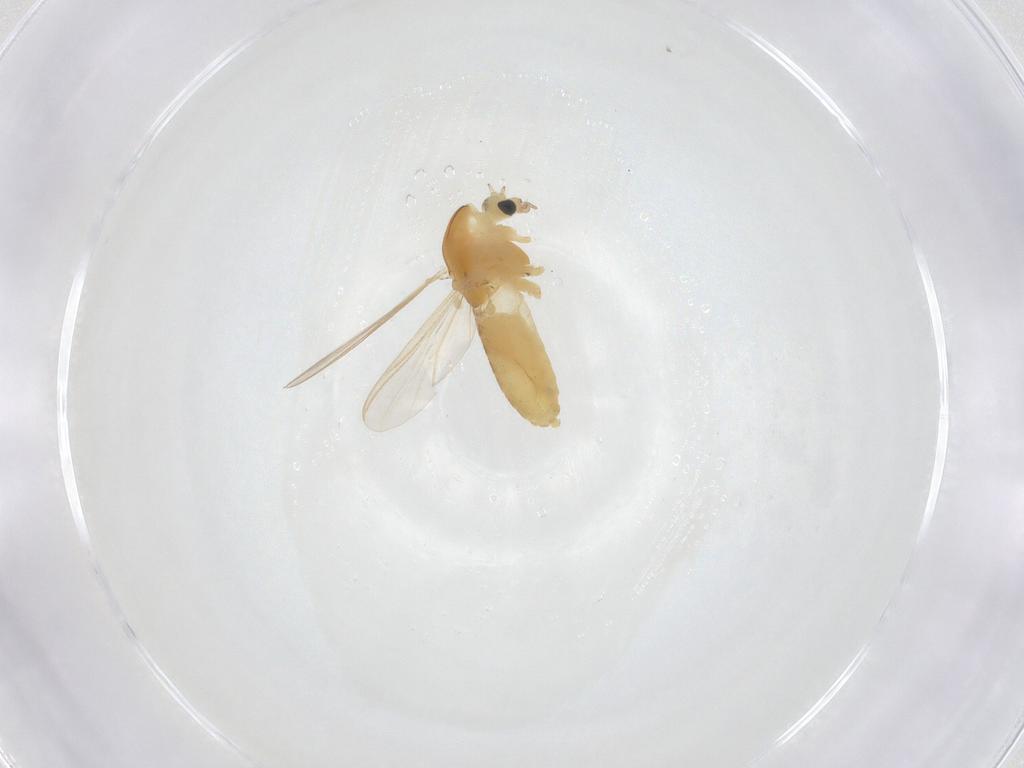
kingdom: Animalia
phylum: Arthropoda
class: Insecta
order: Diptera
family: Chironomidae
